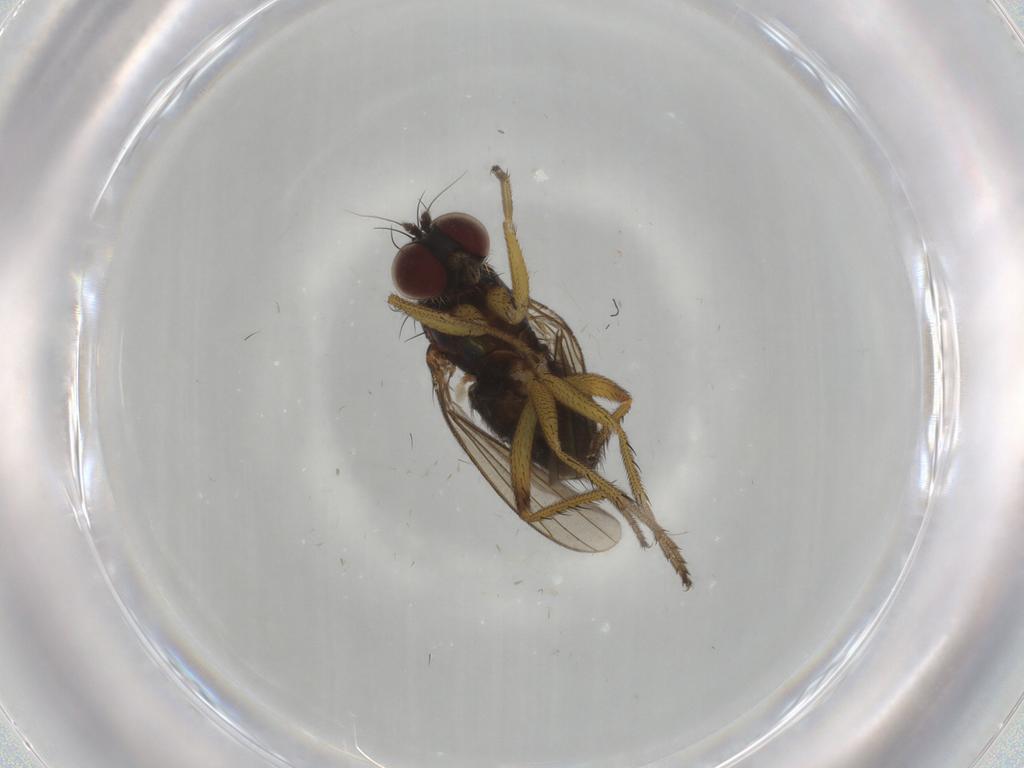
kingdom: Animalia
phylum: Arthropoda
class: Insecta
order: Diptera
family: Dolichopodidae
